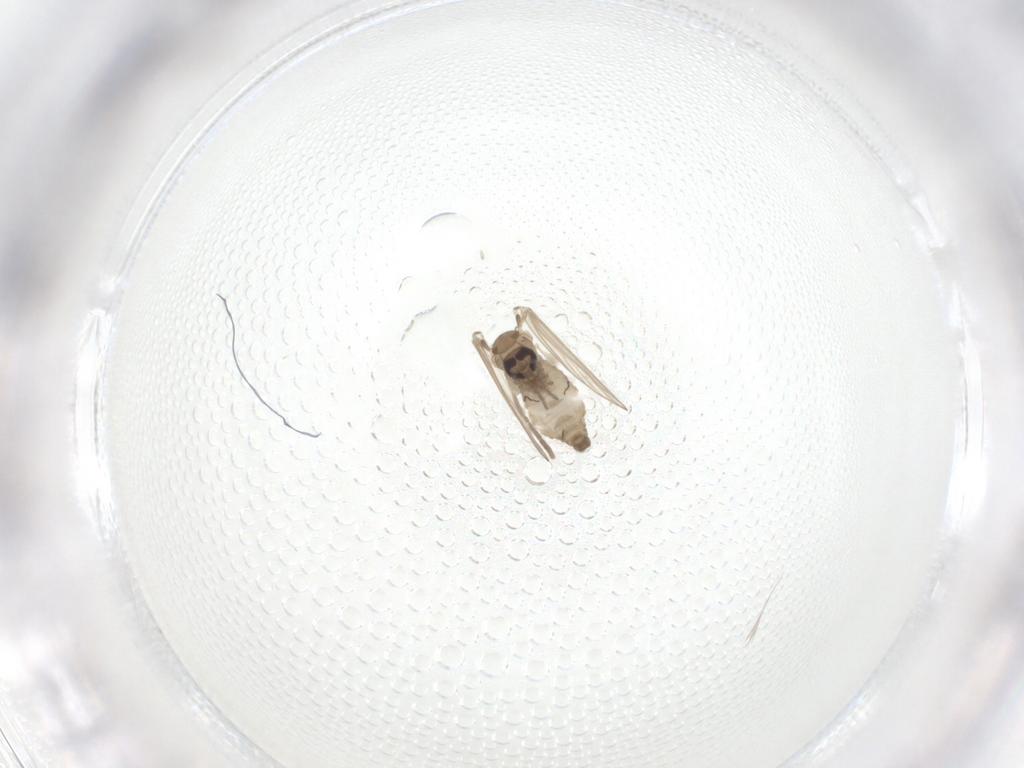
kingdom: Animalia
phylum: Arthropoda
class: Insecta
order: Diptera
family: Psychodidae
